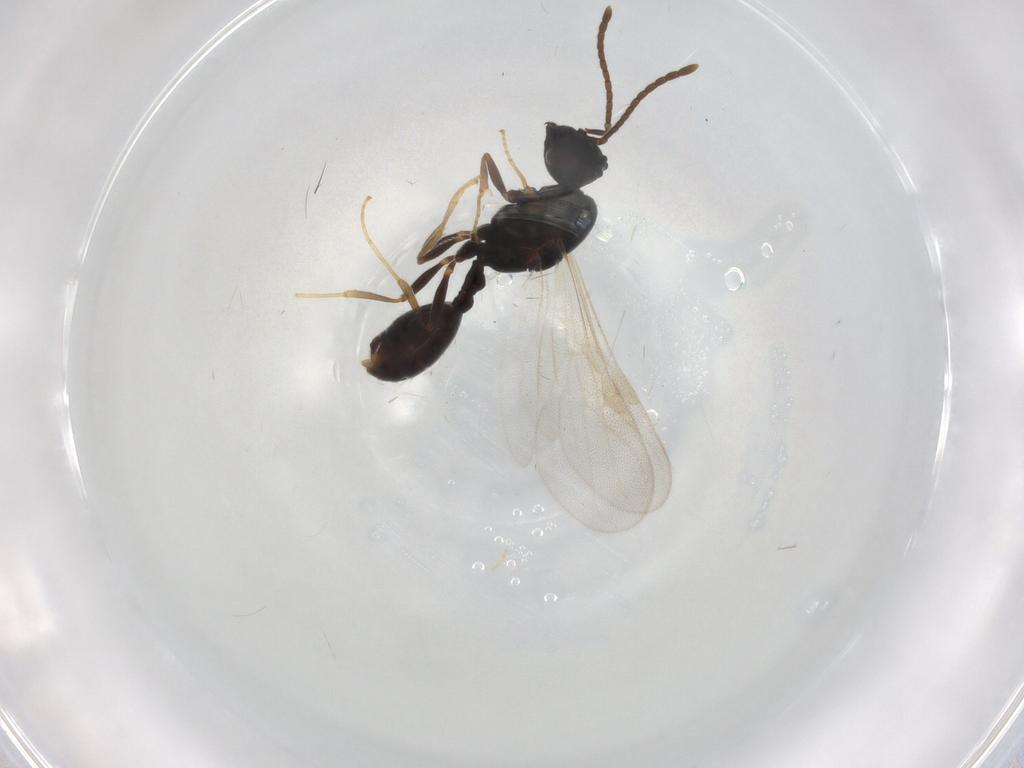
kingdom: Animalia
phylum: Arthropoda
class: Insecta
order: Hymenoptera
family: Formicidae
